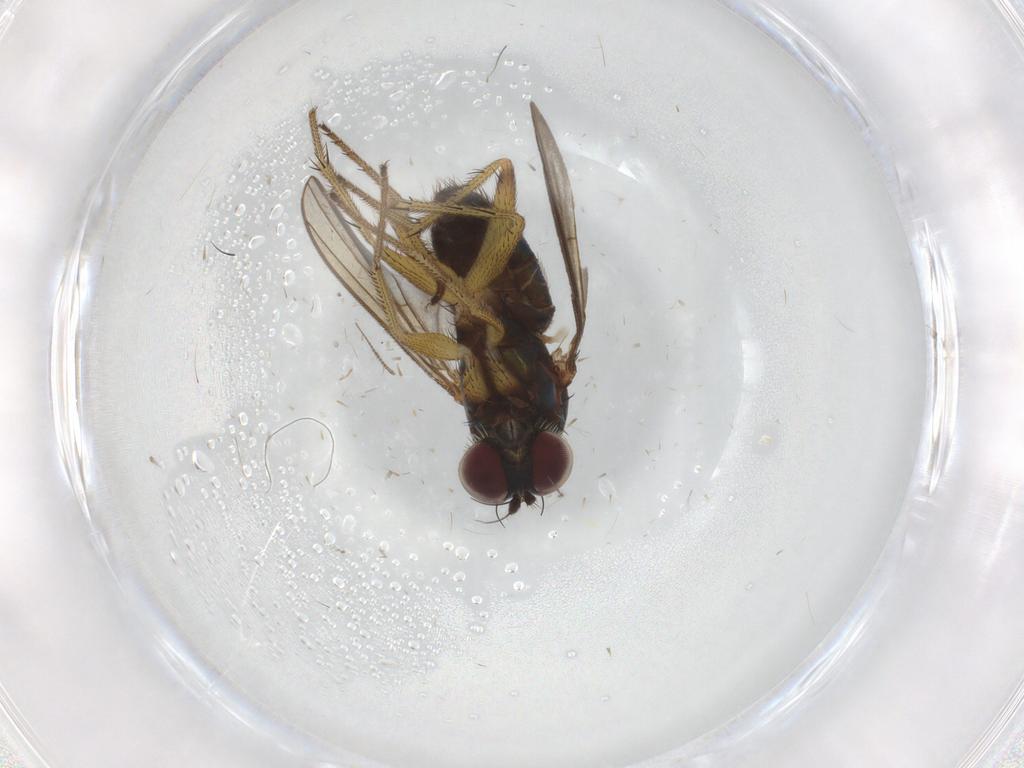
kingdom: Animalia
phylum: Arthropoda
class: Insecta
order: Diptera
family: Dolichopodidae
